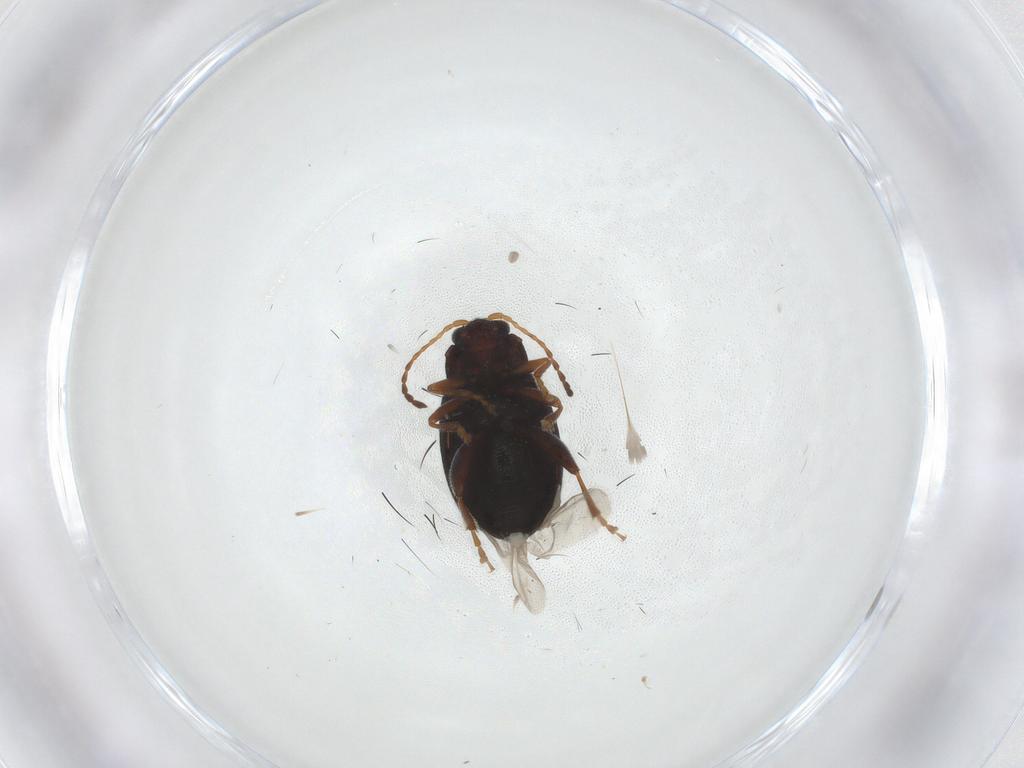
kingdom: Animalia
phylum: Arthropoda
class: Insecta
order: Coleoptera
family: Chrysomelidae
